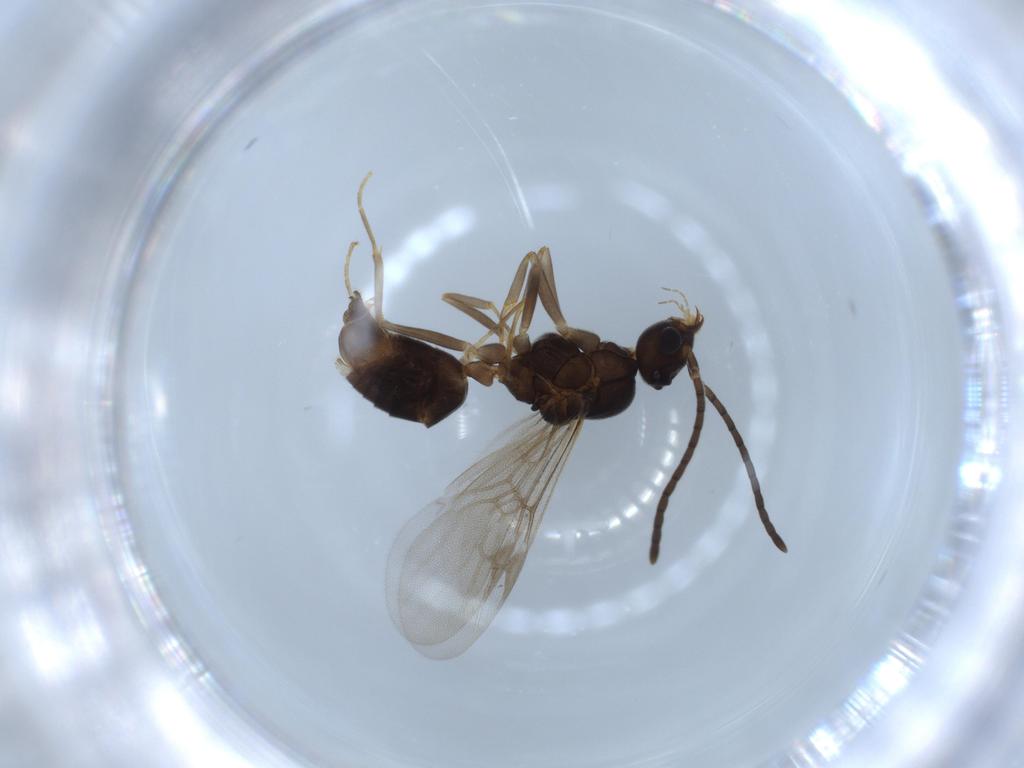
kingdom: Animalia
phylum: Arthropoda
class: Insecta
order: Hymenoptera
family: Formicidae
